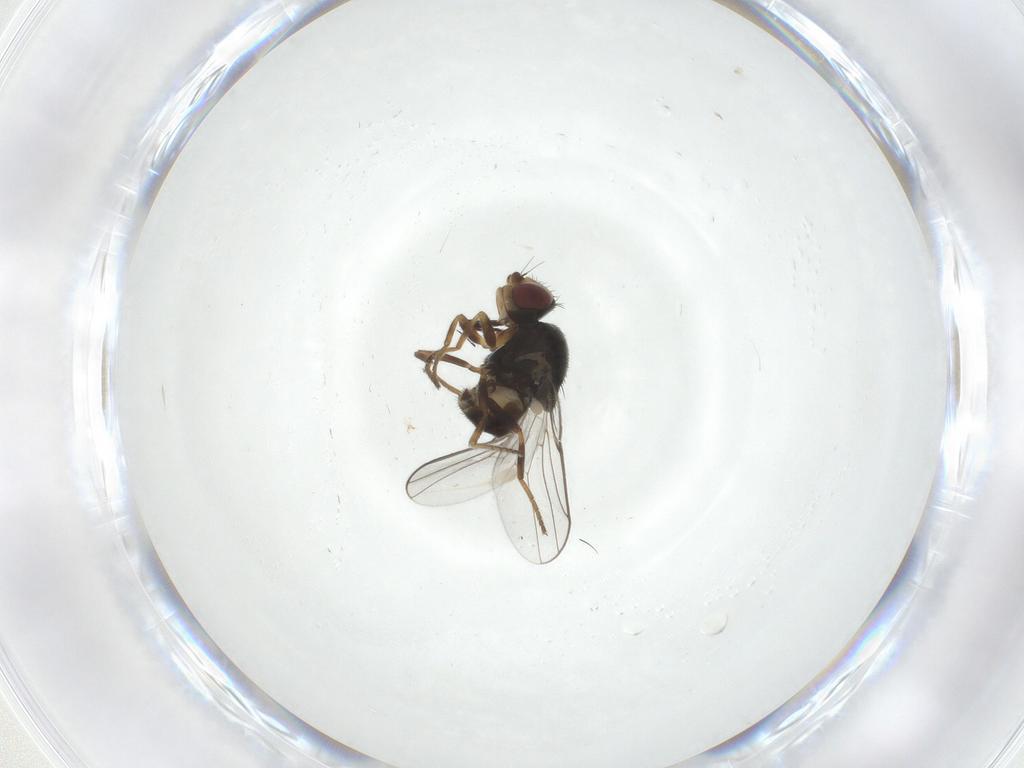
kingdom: Animalia
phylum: Arthropoda
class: Insecta
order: Diptera
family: Chloropidae
